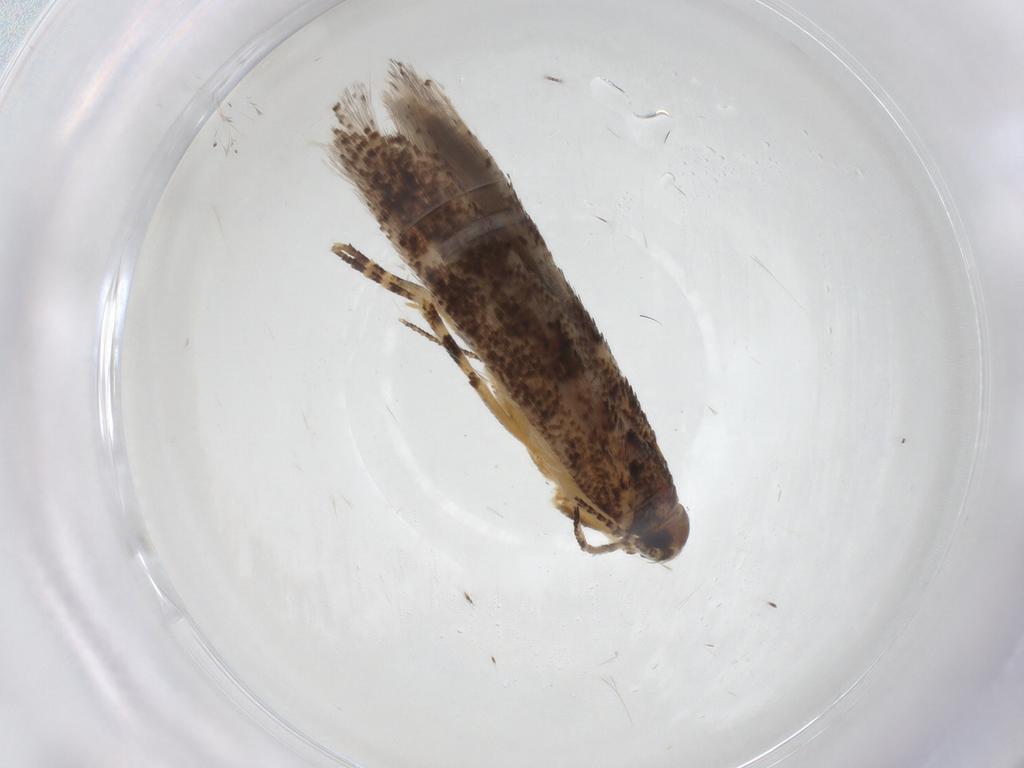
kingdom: Animalia
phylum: Arthropoda
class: Insecta
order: Lepidoptera
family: Gelechiidae
